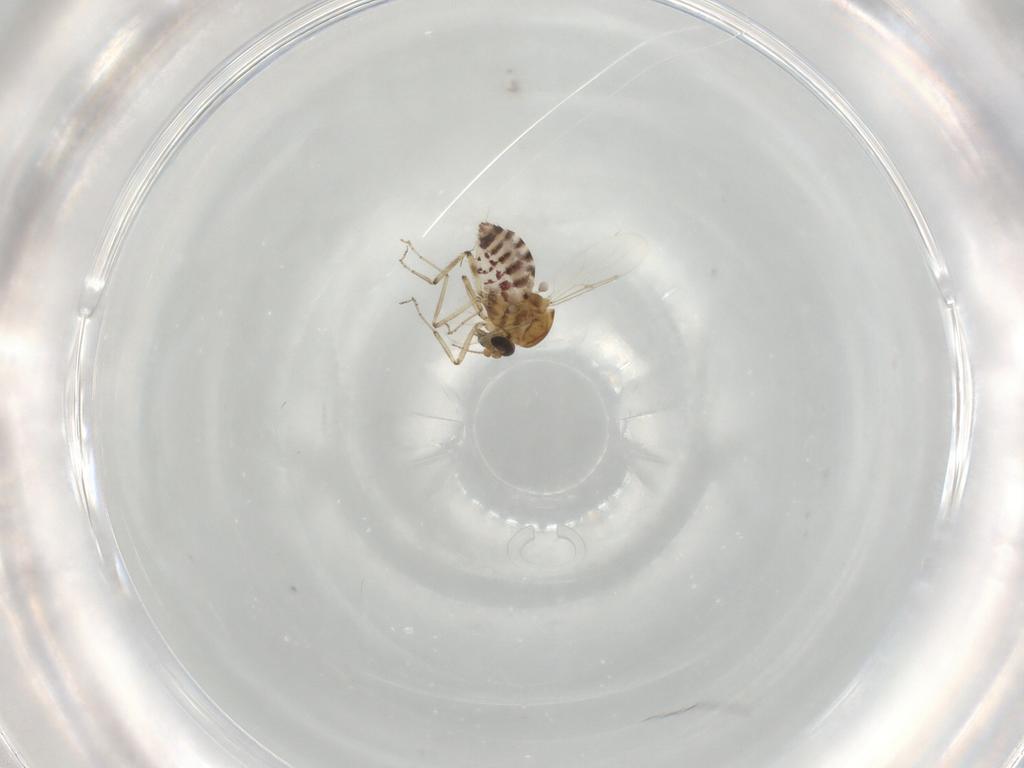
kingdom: Animalia
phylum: Arthropoda
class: Insecta
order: Diptera
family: Ceratopogonidae
